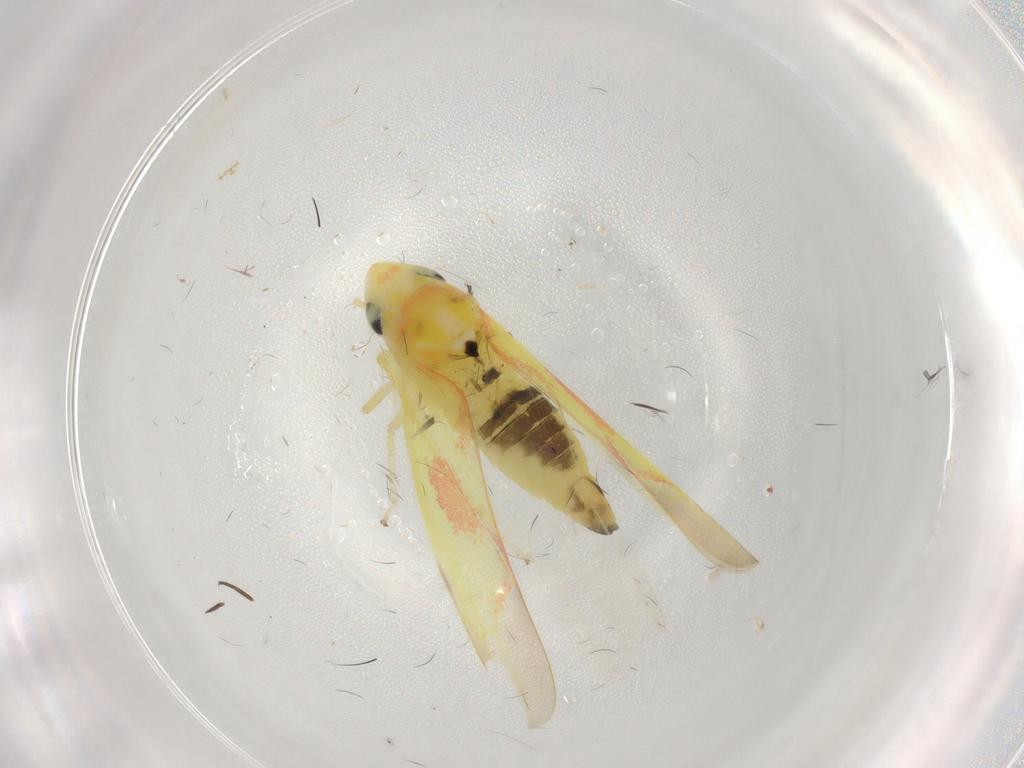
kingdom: Animalia
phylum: Arthropoda
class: Insecta
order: Hemiptera
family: Cicadellidae
